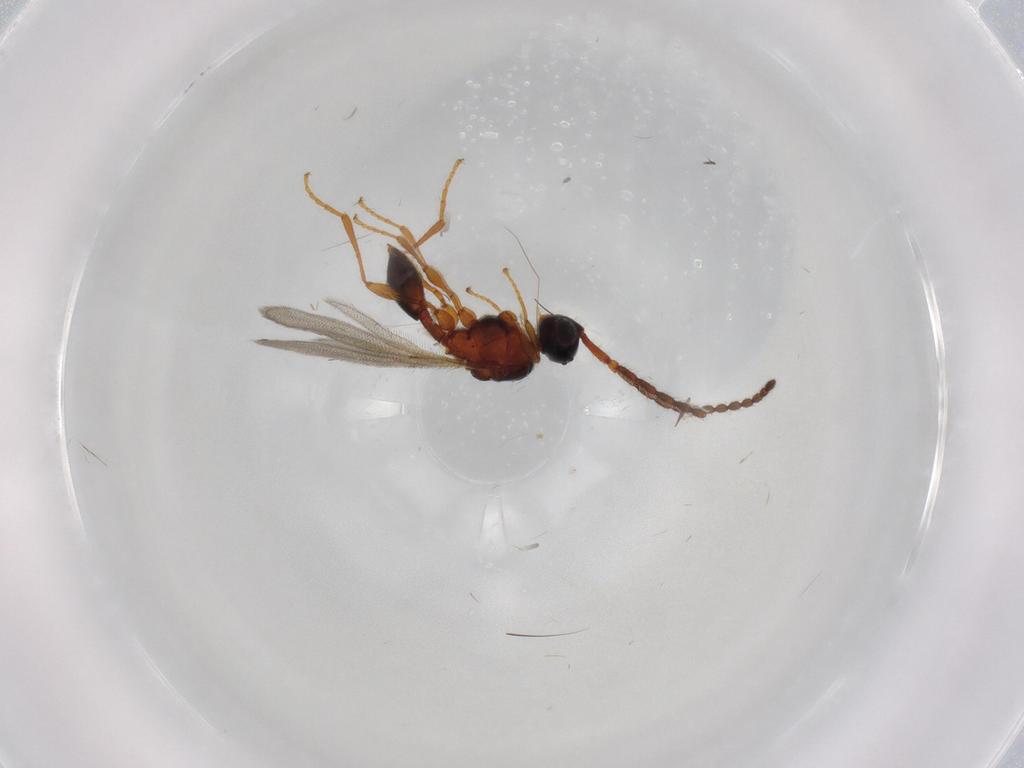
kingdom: Animalia
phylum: Arthropoda
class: Insecta
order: Hymenoptera
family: Diapriidae
